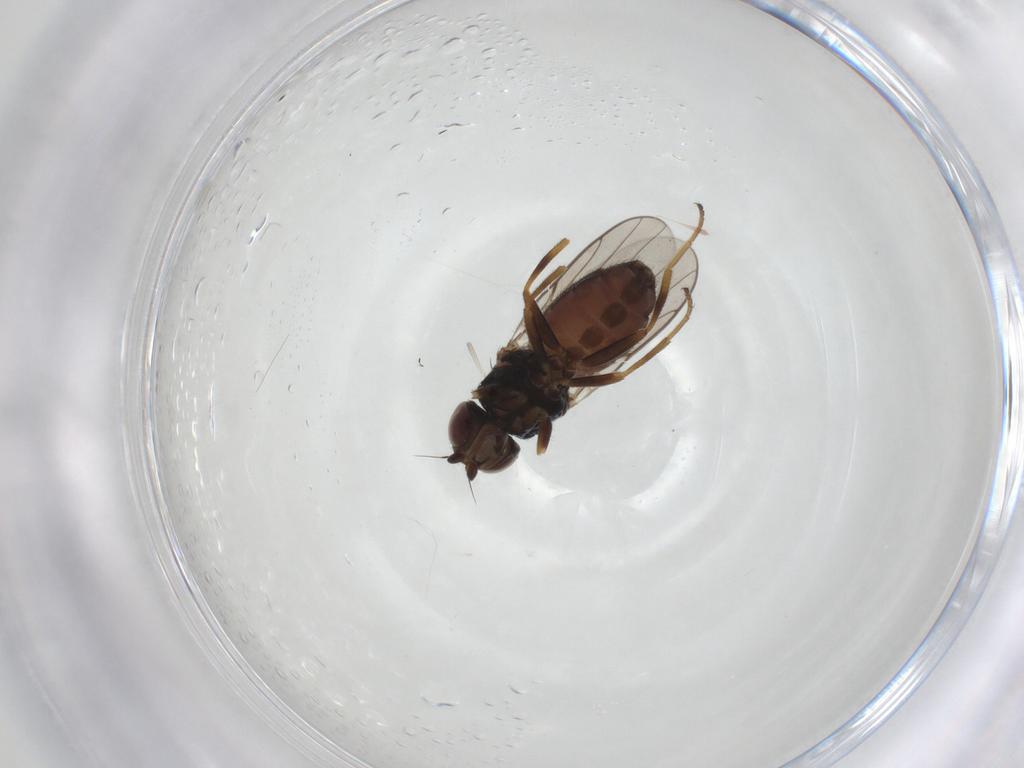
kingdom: Animalia
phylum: Arthropoda
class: Insecta
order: Diptera
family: Chloropidae
